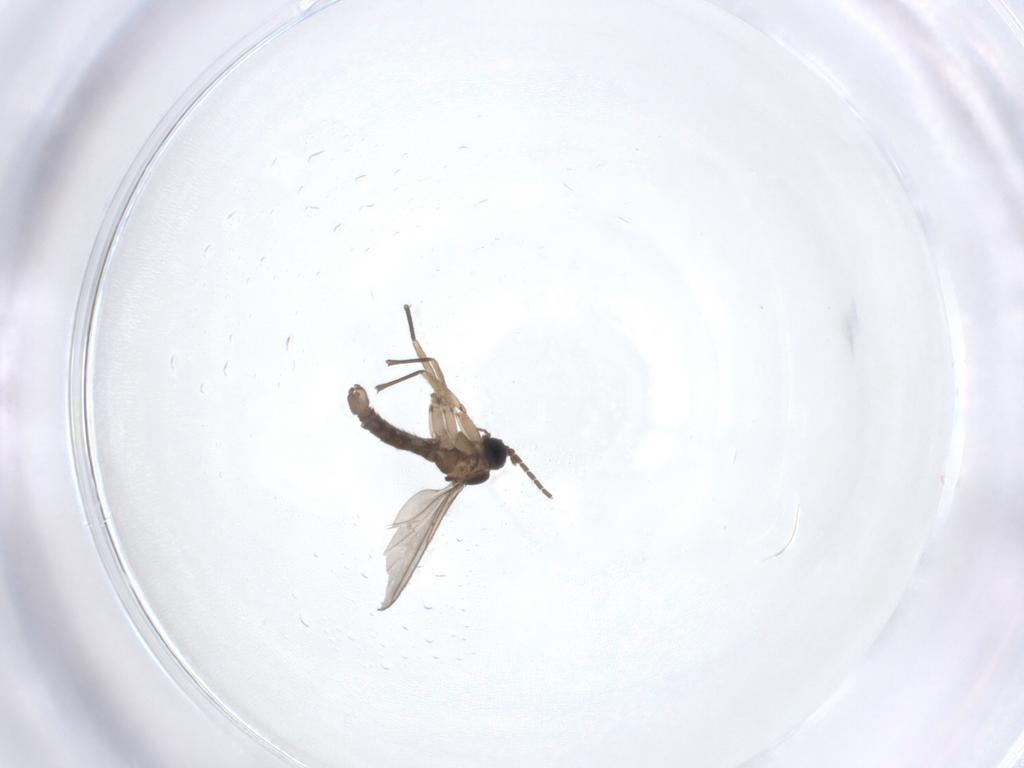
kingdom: Animalia
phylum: Arthropoda
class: Insecta
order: Diptera
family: Sciaridae
